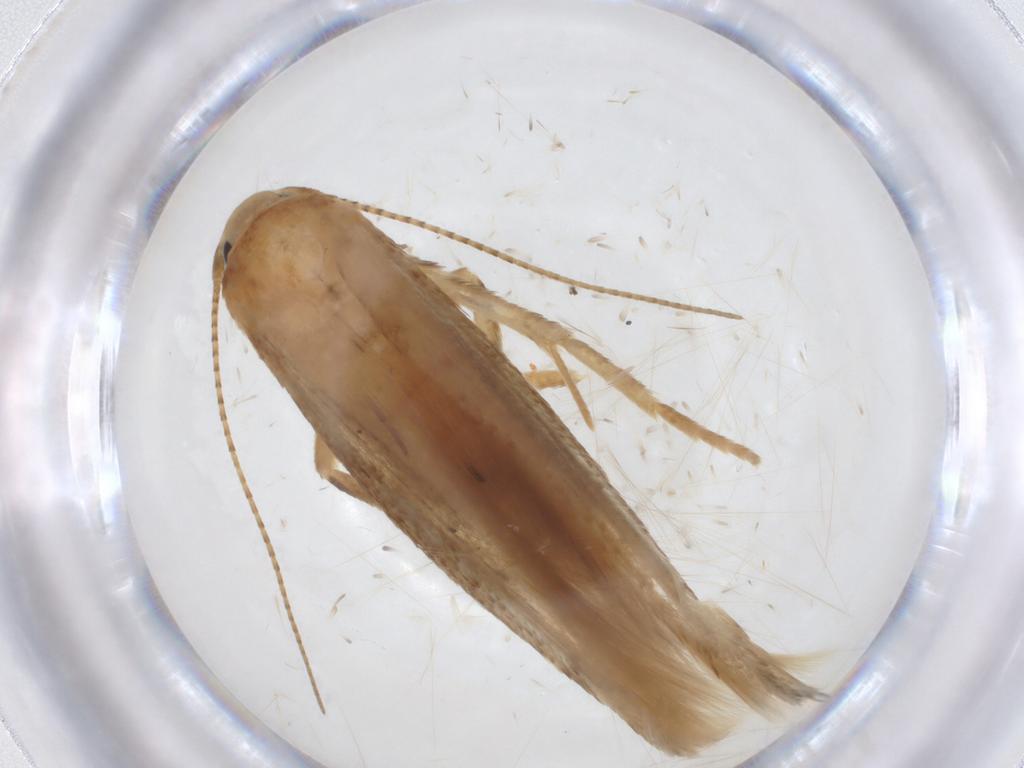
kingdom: Animalia
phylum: Arthropoda
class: Insecta
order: Lepidoptera
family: Stathmopodidae
